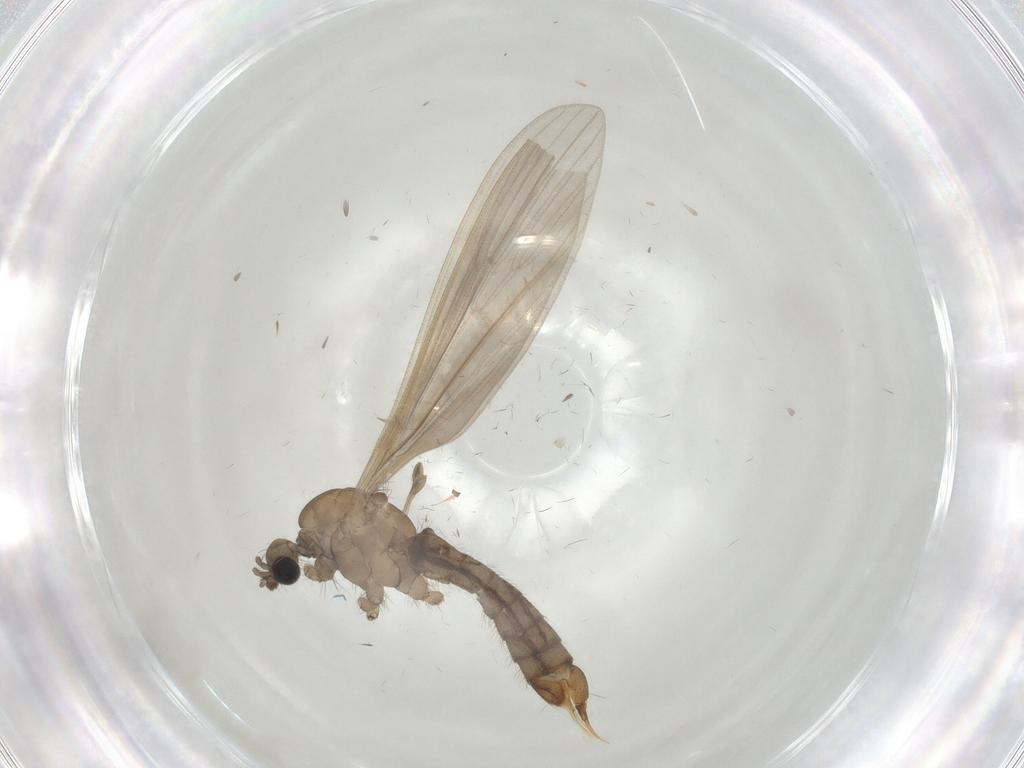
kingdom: Animalia
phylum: Arthropoda
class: Insecta
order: Diptera
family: Limoniidae
